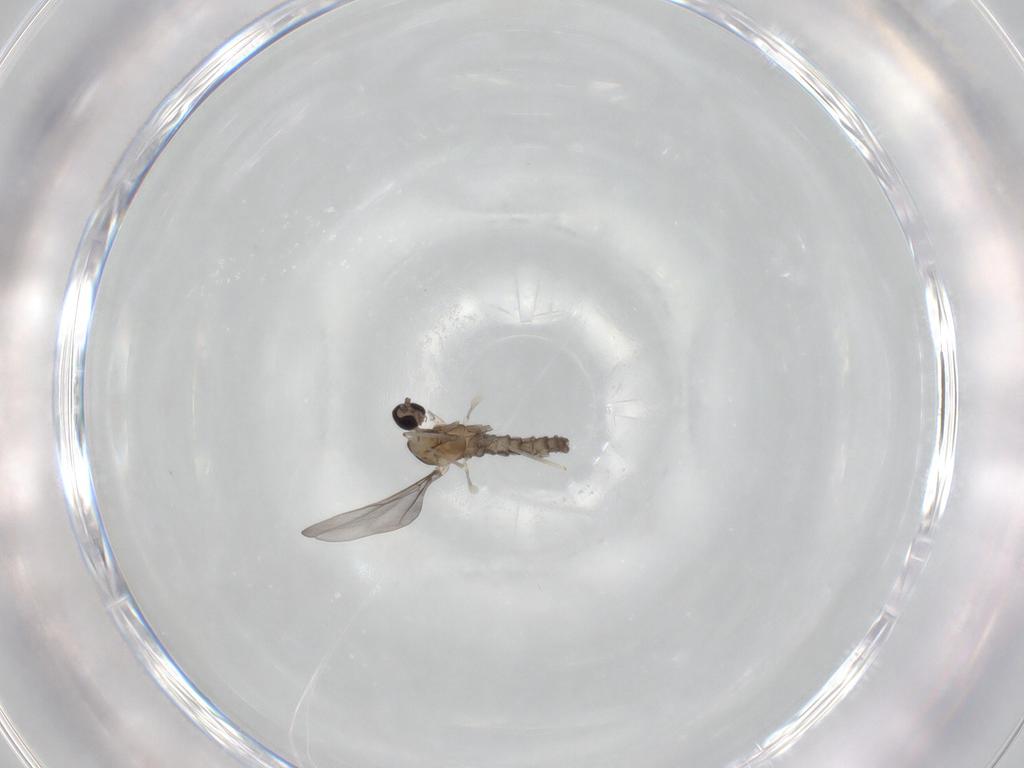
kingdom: Animalia
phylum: Arthropoda
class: Insecta
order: Diptera
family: Cecidomyiidae
